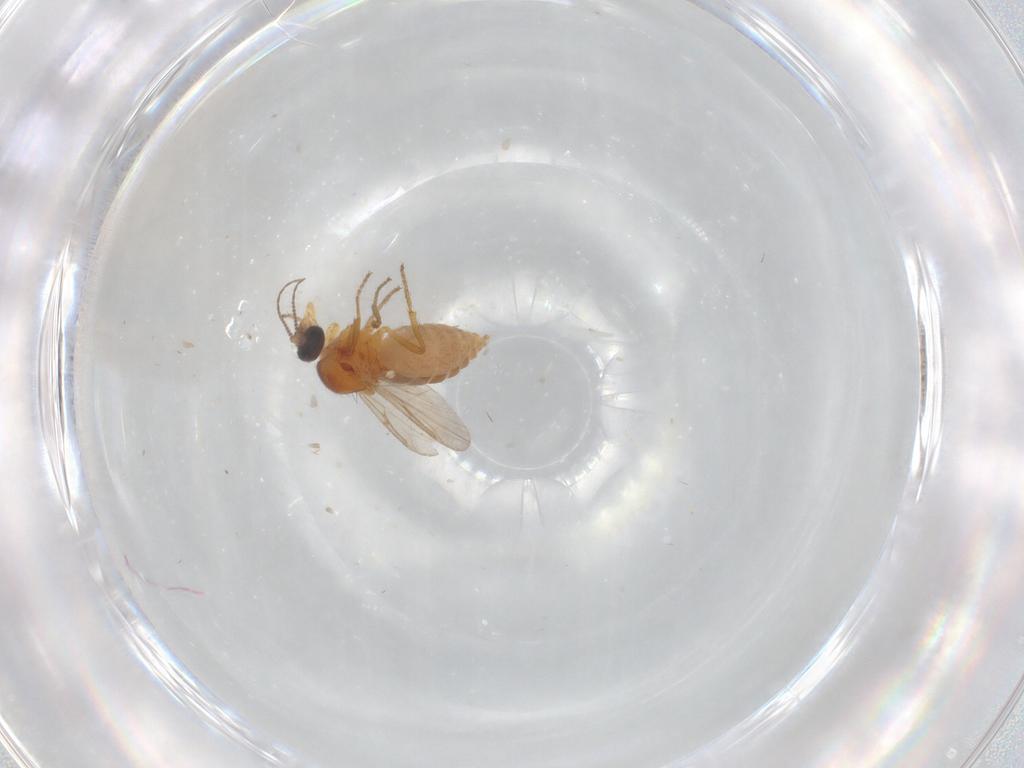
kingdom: Animalia
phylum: Arthropoda
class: Insecta
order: Diptera
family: Ceratopogonidae
